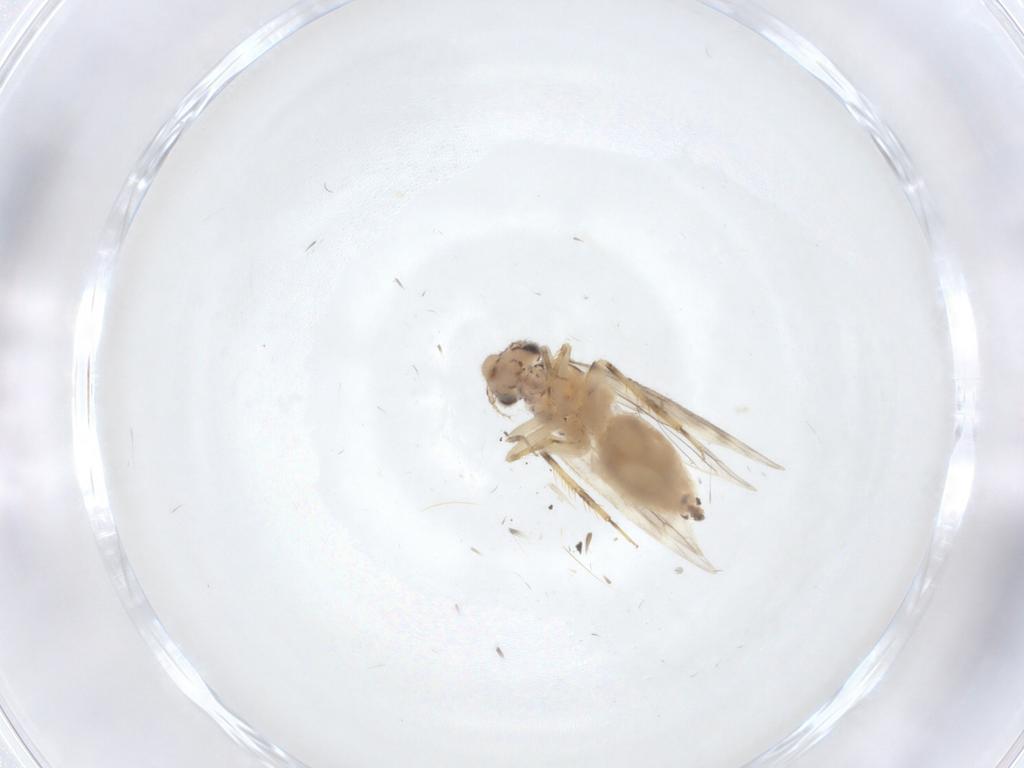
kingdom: Animalia
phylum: Arthropoda
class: Insecta
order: Psocodea
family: Lepidopsocidae
